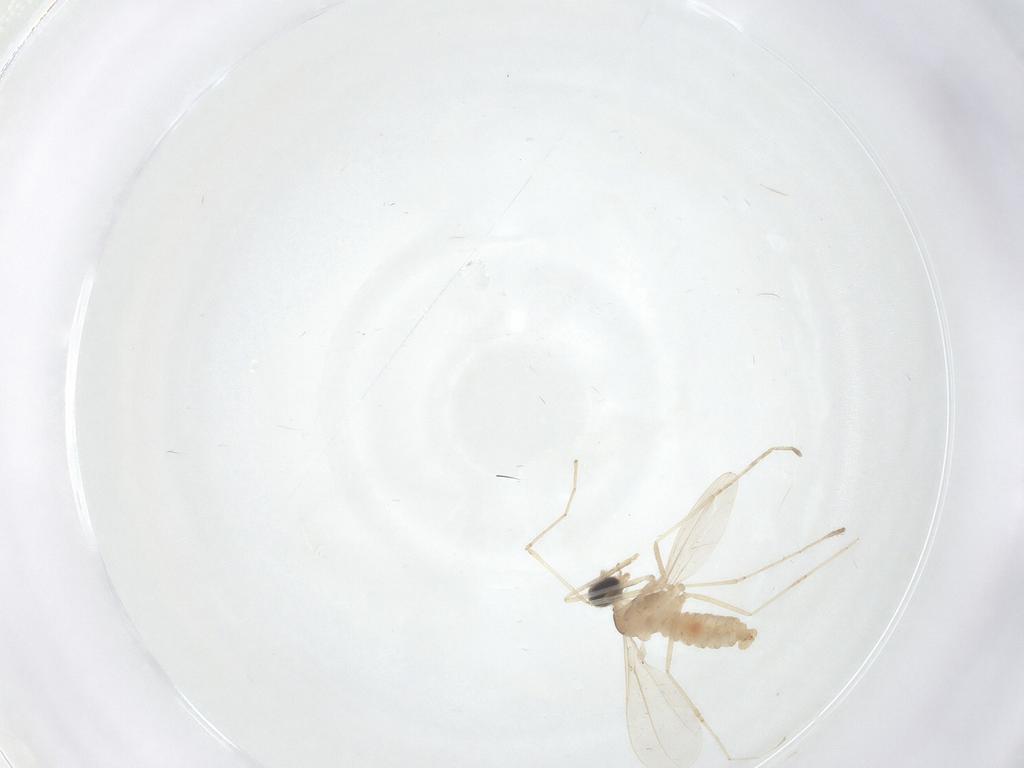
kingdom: Animalia
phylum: Arthropoda
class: Insecta
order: Diptera
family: Cecidomyiidae
